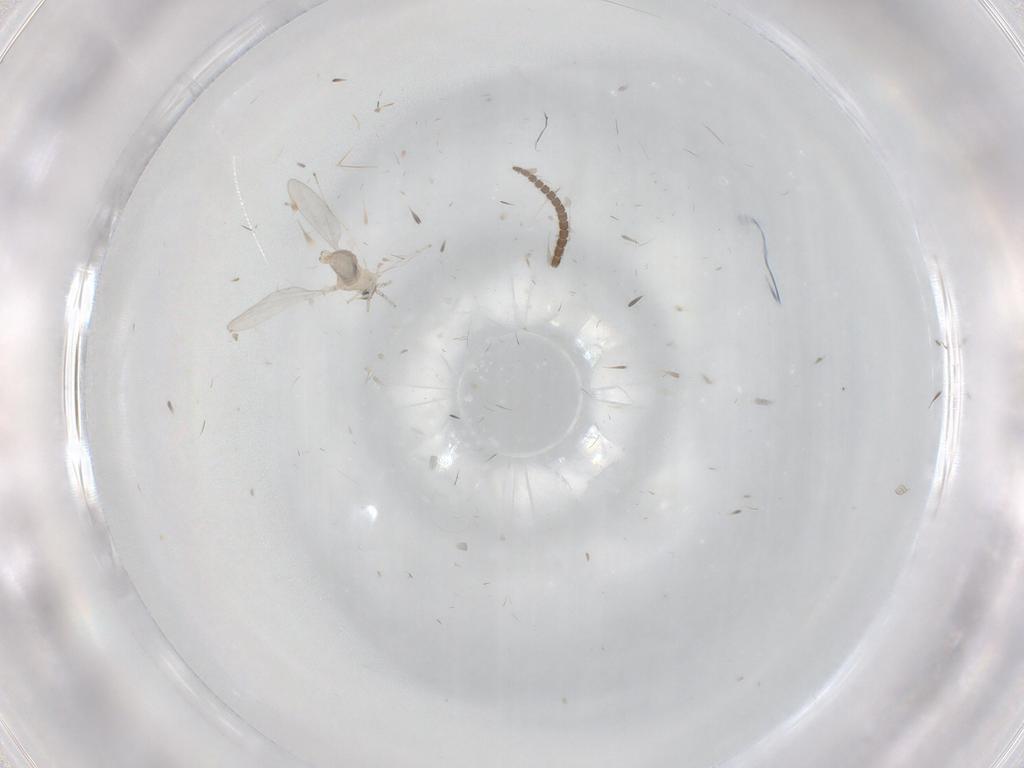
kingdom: Animalia
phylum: Arthropoda
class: Insecta
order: Diptera
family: Cecidomyiidae
